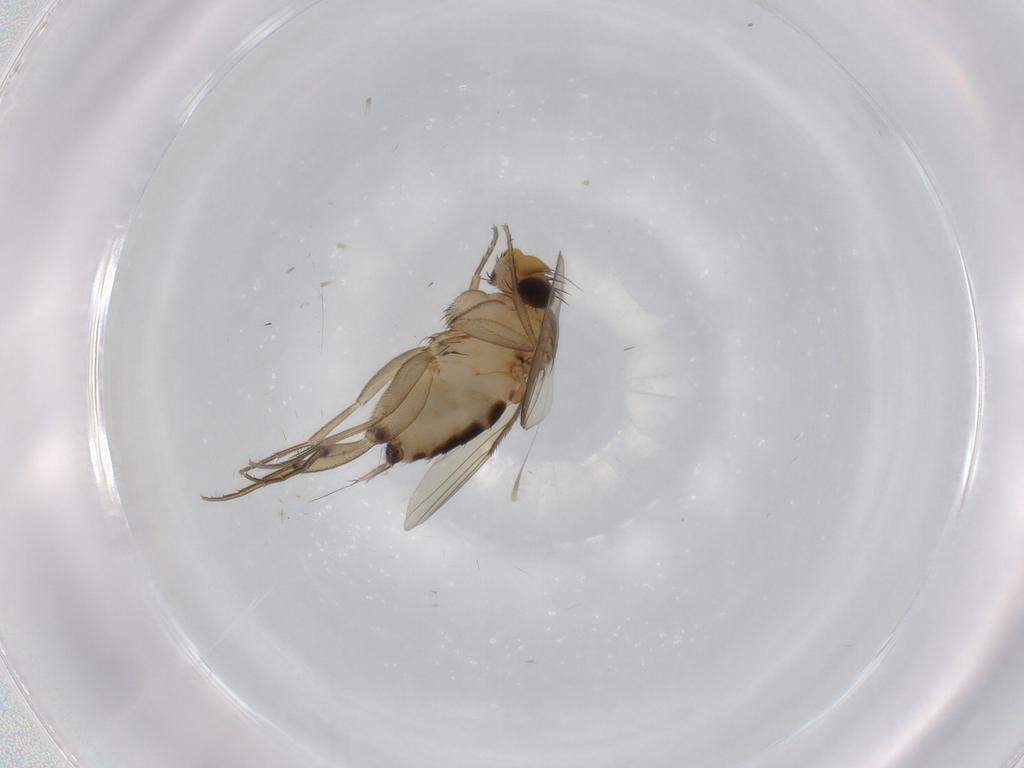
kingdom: Animalia
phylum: Arthropoda
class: Insecta
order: Diptera
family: Ceratopogonidae
